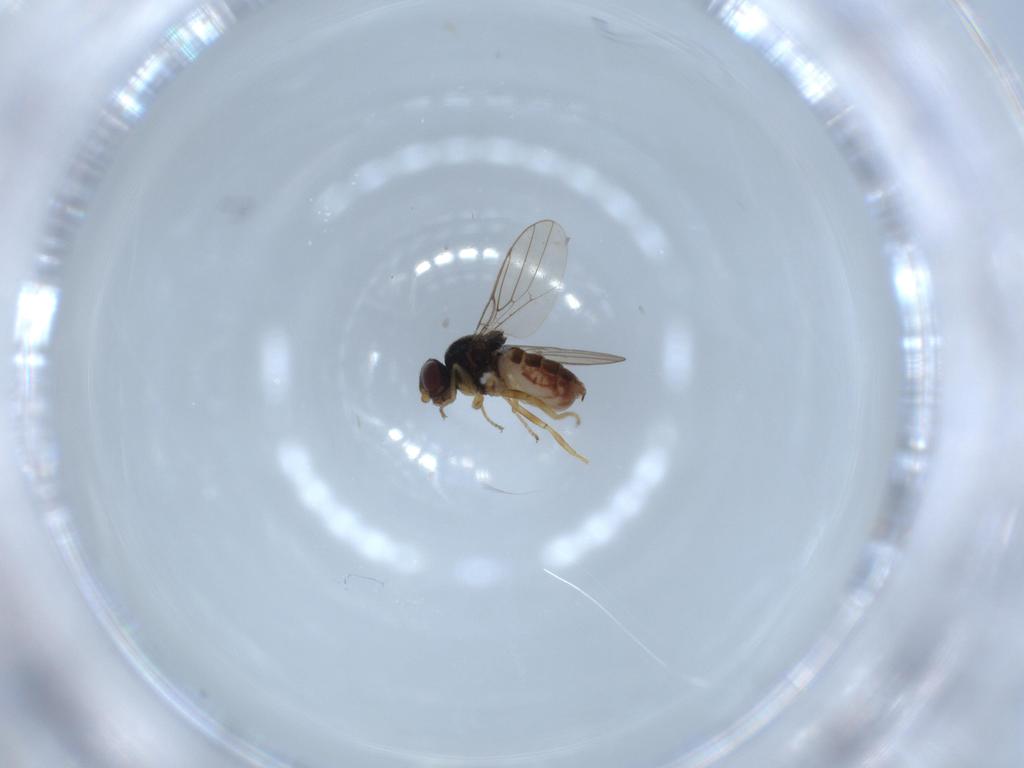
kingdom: Animalia
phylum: Arthropoda
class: Insecta
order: Diptera
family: Chloropidae
